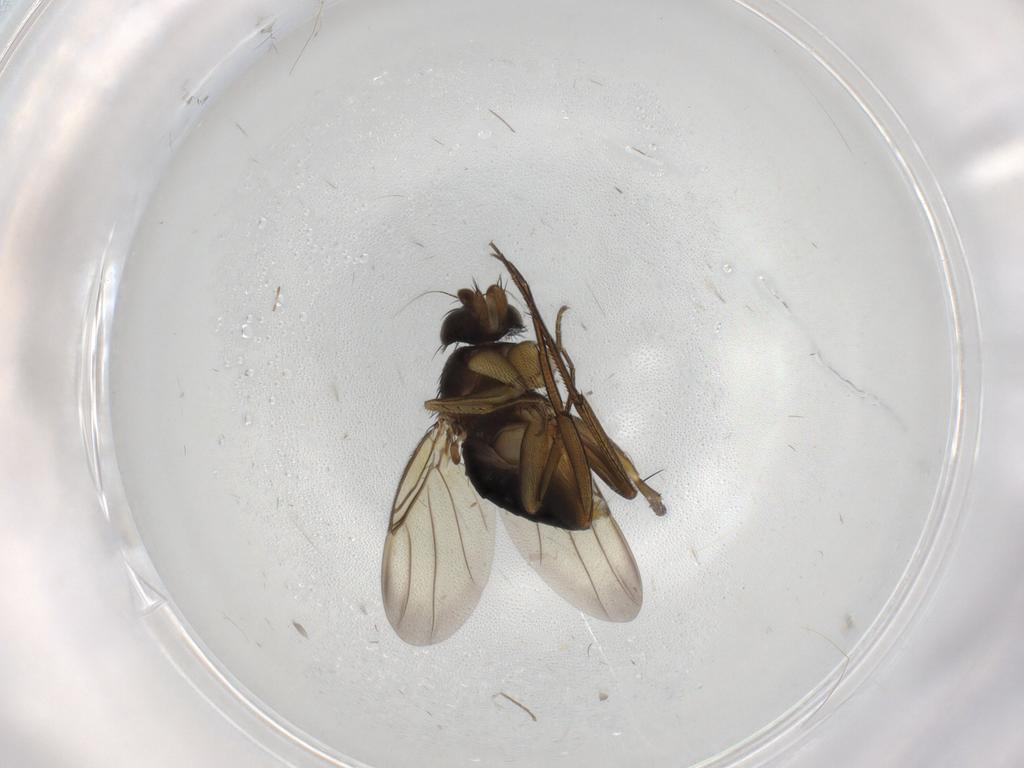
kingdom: Animalia
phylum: Arthropoda
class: Insecta
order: Diptera
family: Phoridae
